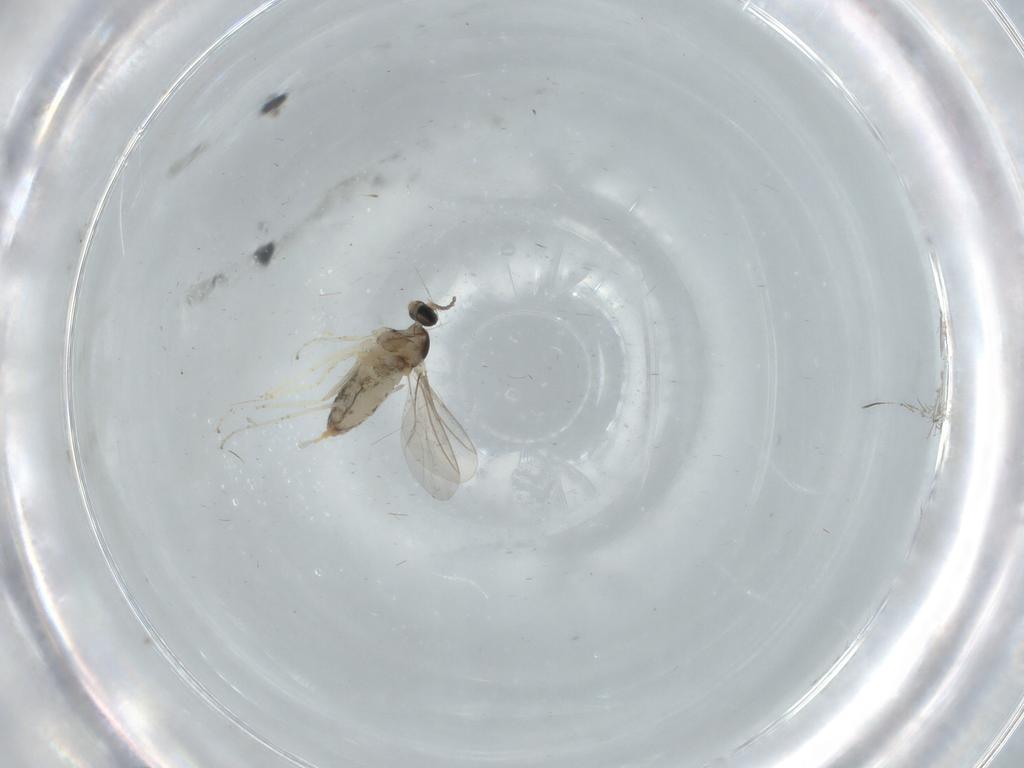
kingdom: Animalia
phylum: Arthropoda
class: Insecta
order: Diptera
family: Cecidomyiidae
